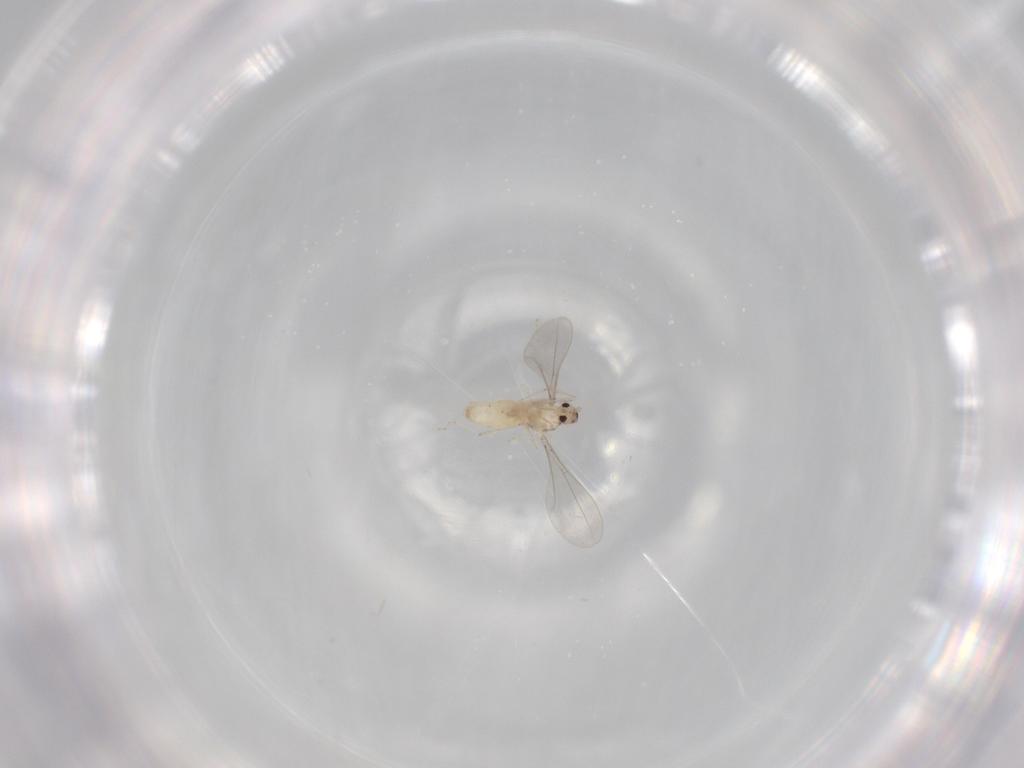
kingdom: Animalia
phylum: Arthropoda
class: Insecta
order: Diptera
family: Cecidomyiidae
